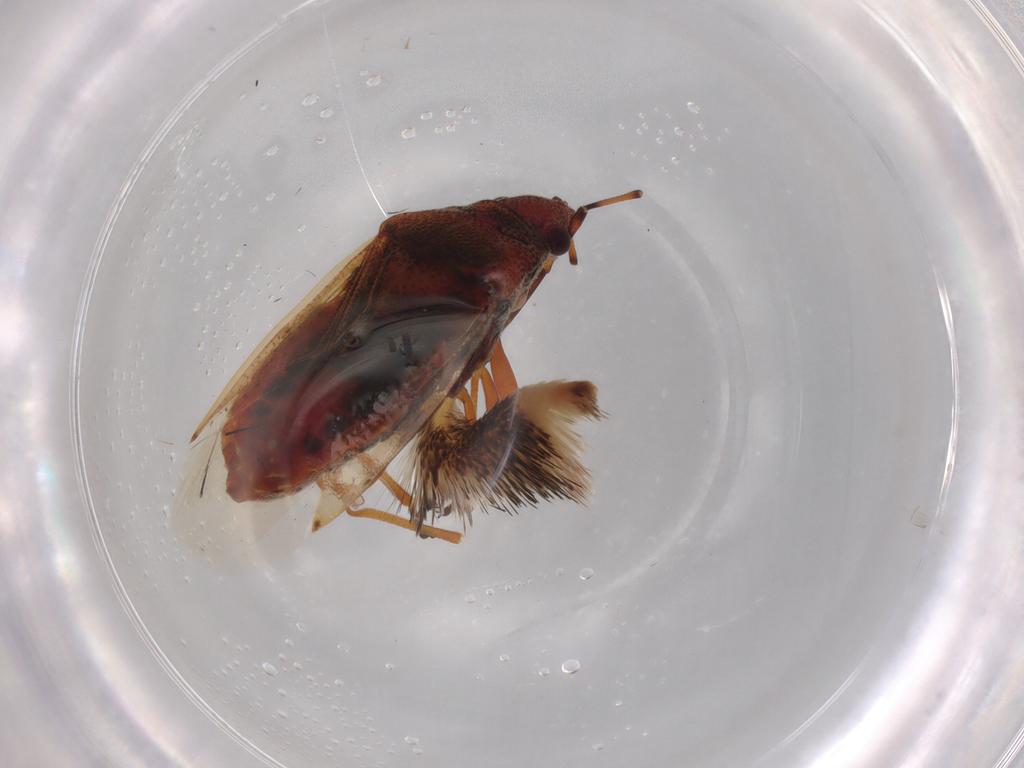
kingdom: Animalia
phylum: Arthropoda
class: Insecta
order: Hemiptera
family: Lygaeidae
